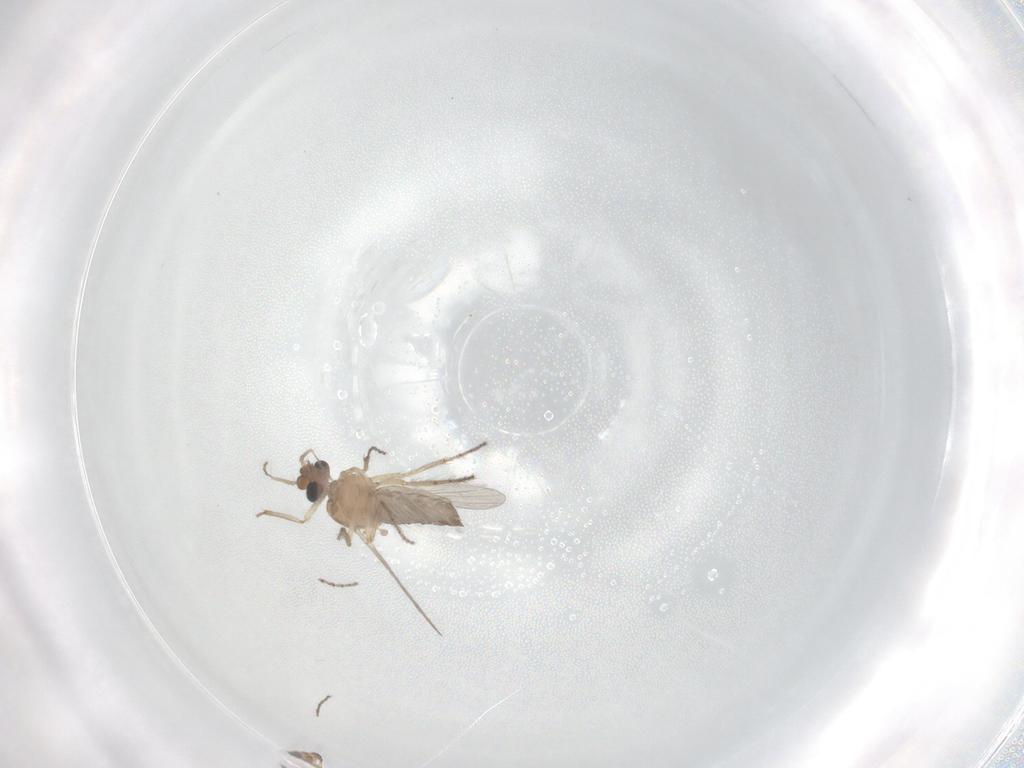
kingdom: Animalia
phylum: Arthropoda
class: Insecta
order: Diptera
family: Ceratopogonidae
